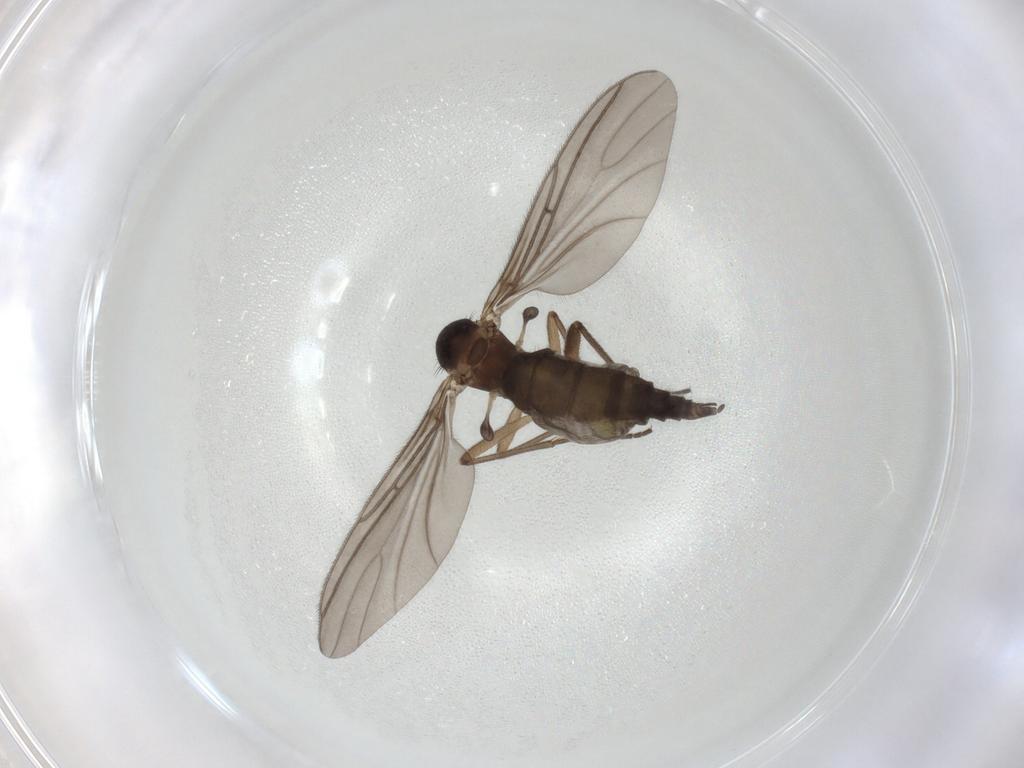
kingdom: Animalia
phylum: Arthropoda
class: Insecta
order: Diptera
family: Sciaridae
